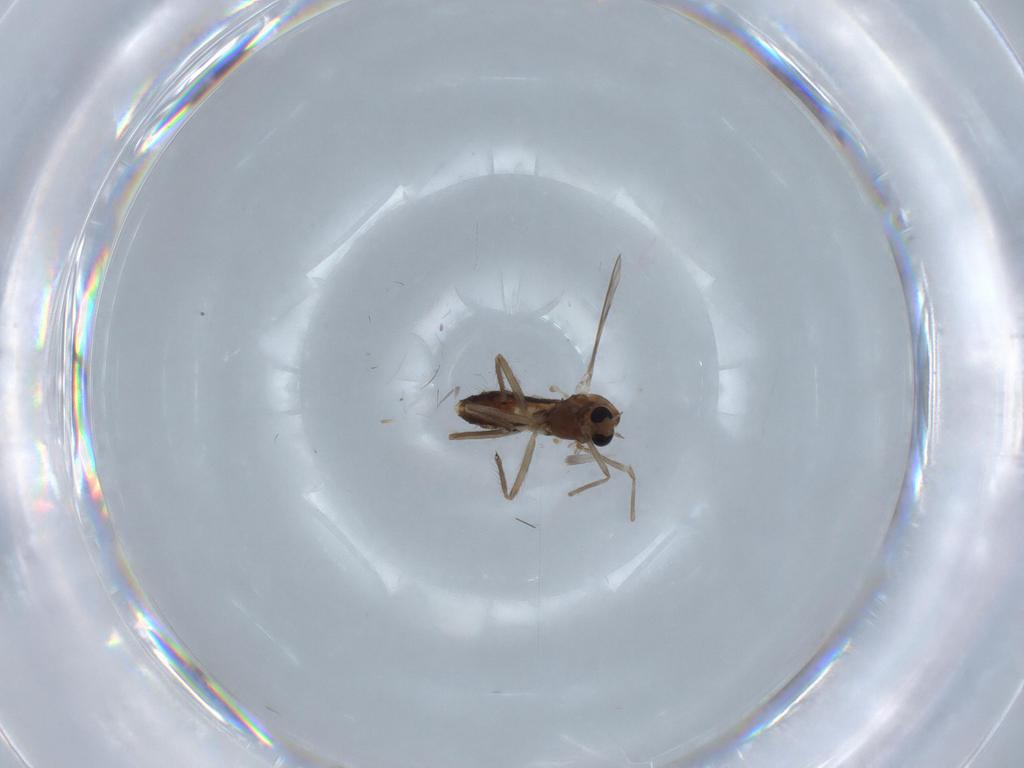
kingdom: Animalia
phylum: Arthropoda
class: Insecta
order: Diptera
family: Chironomidae
